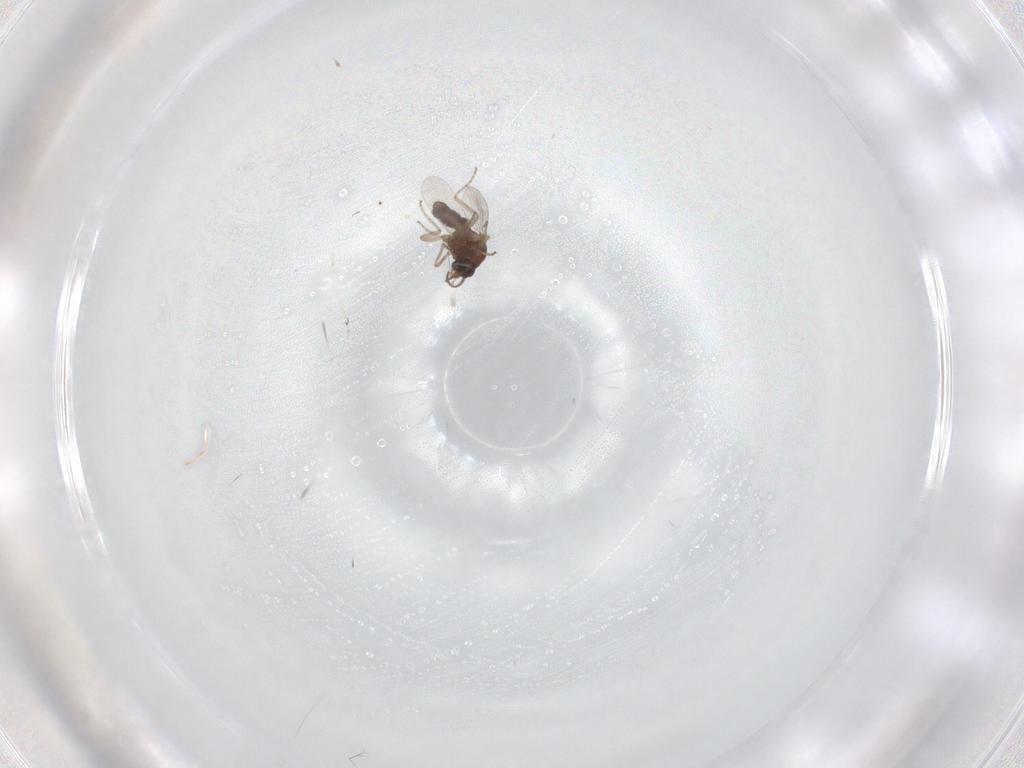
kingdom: Animalia
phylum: Arthropoda
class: Insecta
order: Diptera
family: Ceratopogonidae
